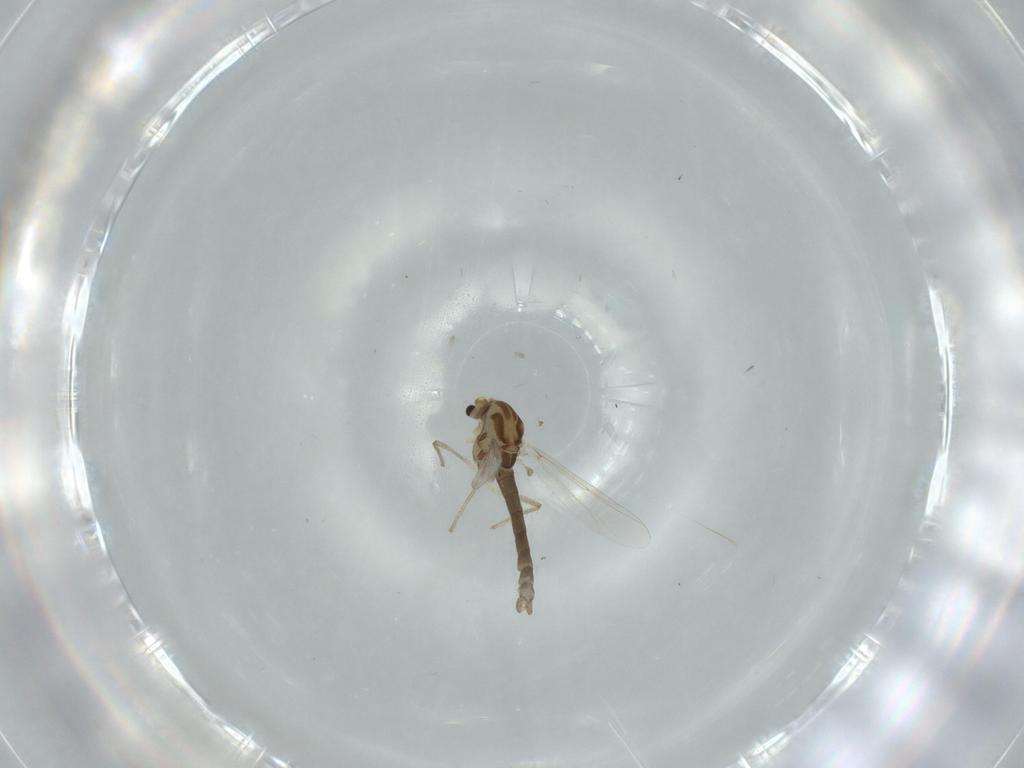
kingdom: Animalia
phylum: Arthropoda
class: Insecta
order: Diptera
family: Chironomidae
